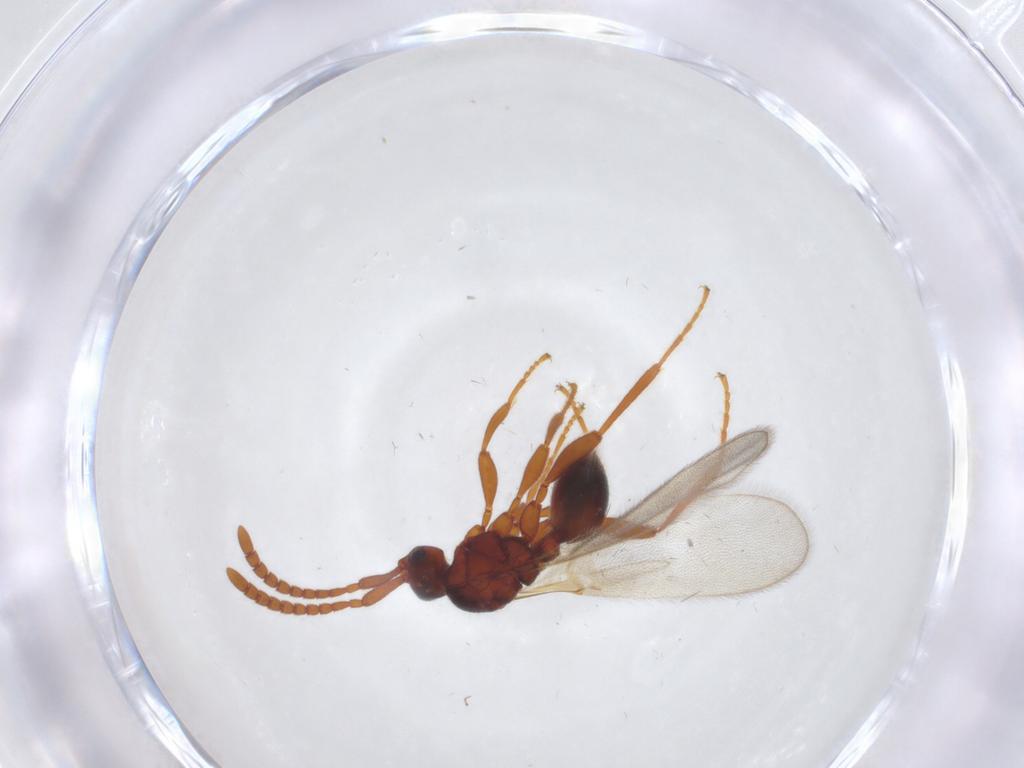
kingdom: Animalia
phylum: Arthropoda
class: Insecta
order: Hymenoptera
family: Diapriidae
